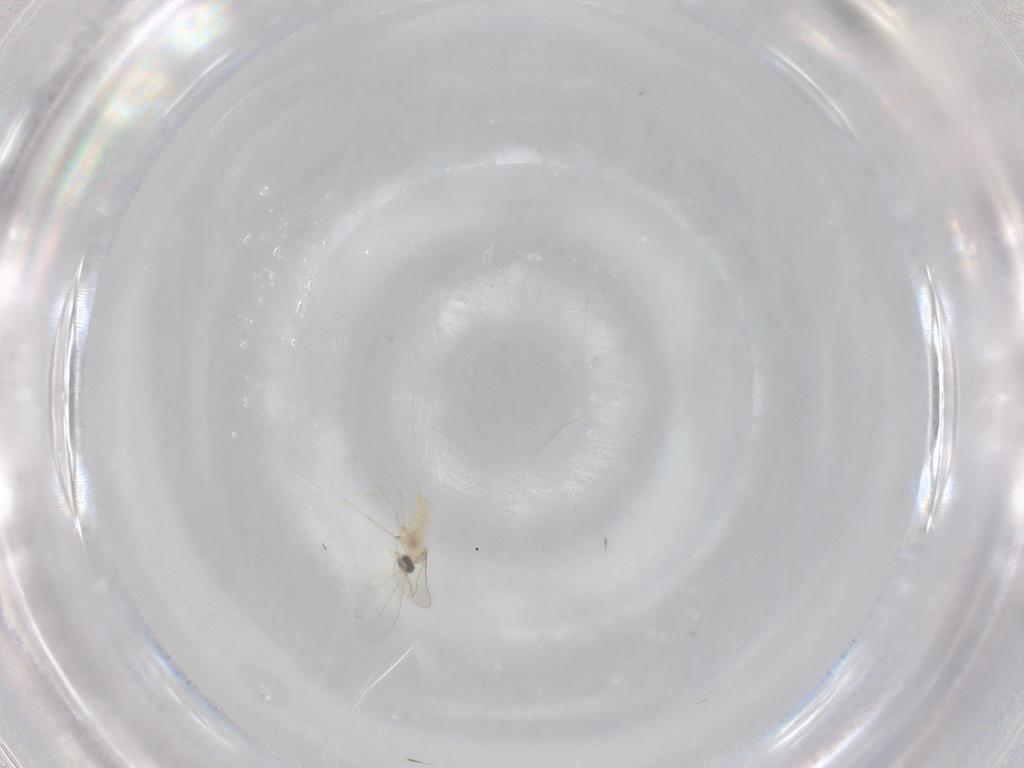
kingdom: Animalia
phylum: Arthropoda
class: Insecta
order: Diptera
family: Cecidomyiidae
